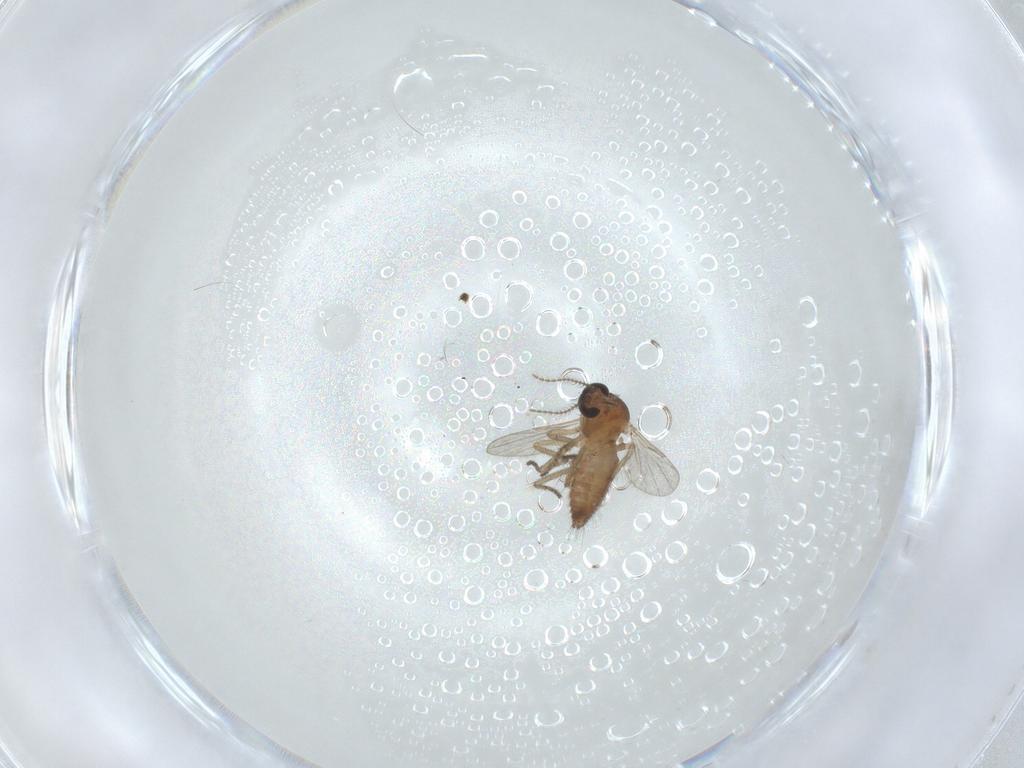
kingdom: Animalia
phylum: Arthropoda
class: Insecta
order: Diptera
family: Ceratopogonidae
